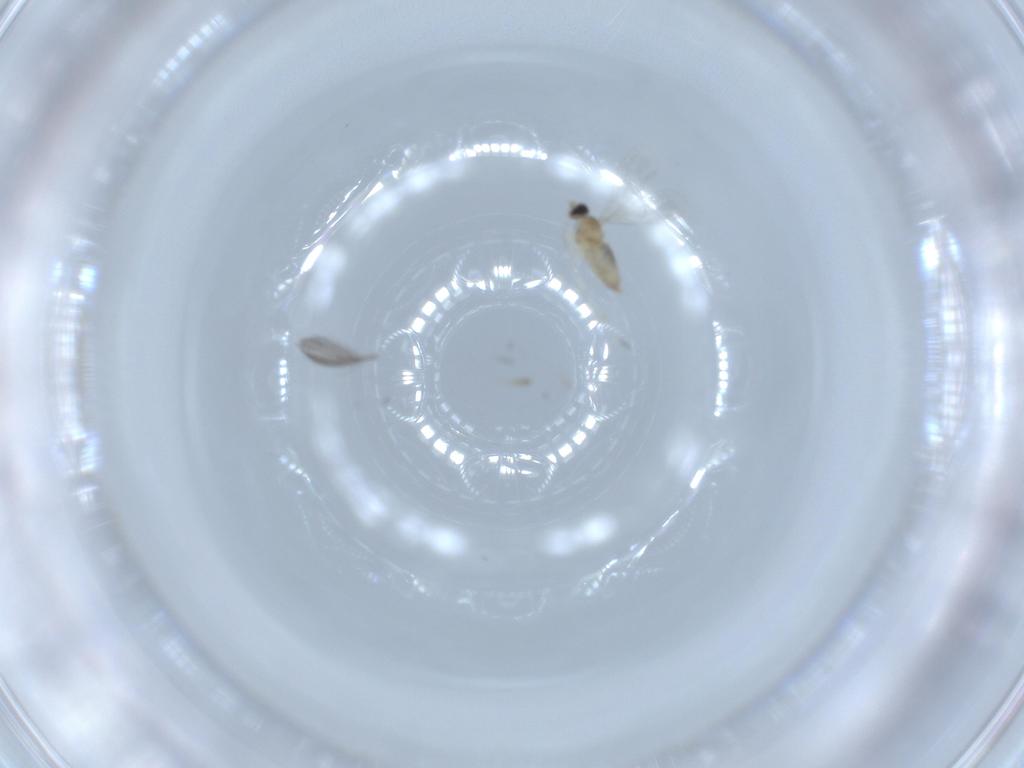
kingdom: Animalia
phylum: Arthropoda
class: Insecta
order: Diptera
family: Chironomidae
